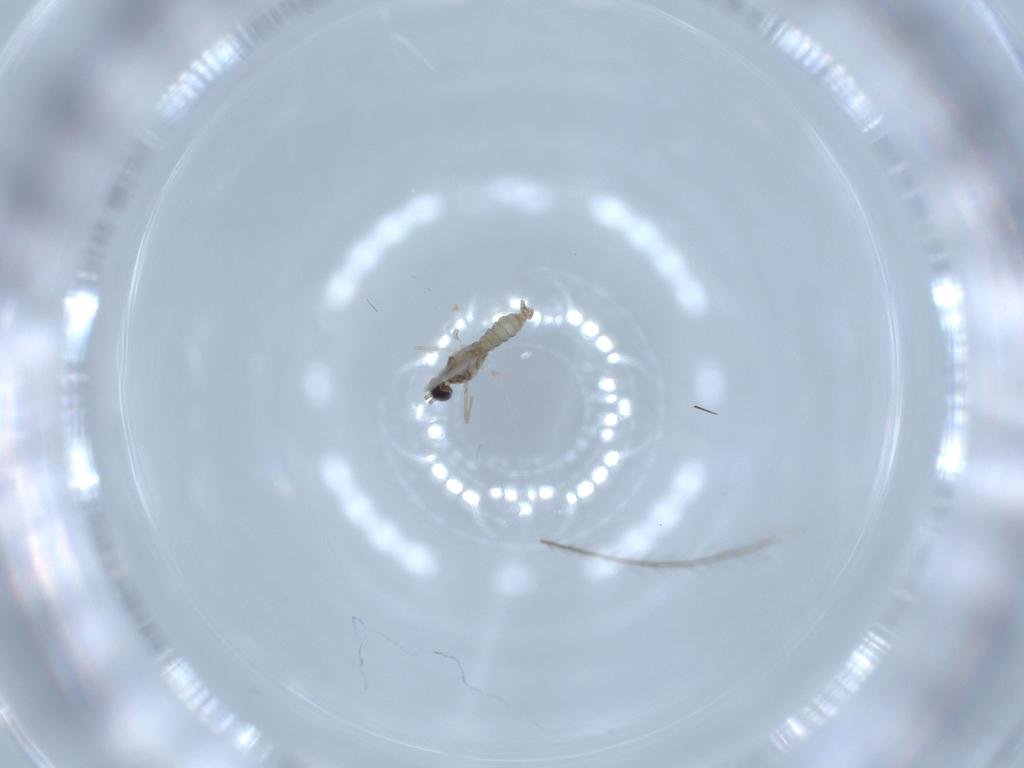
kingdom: Animalia
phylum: Arthropoda
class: Insecta
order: Diptera
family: Cecidomyiidae
